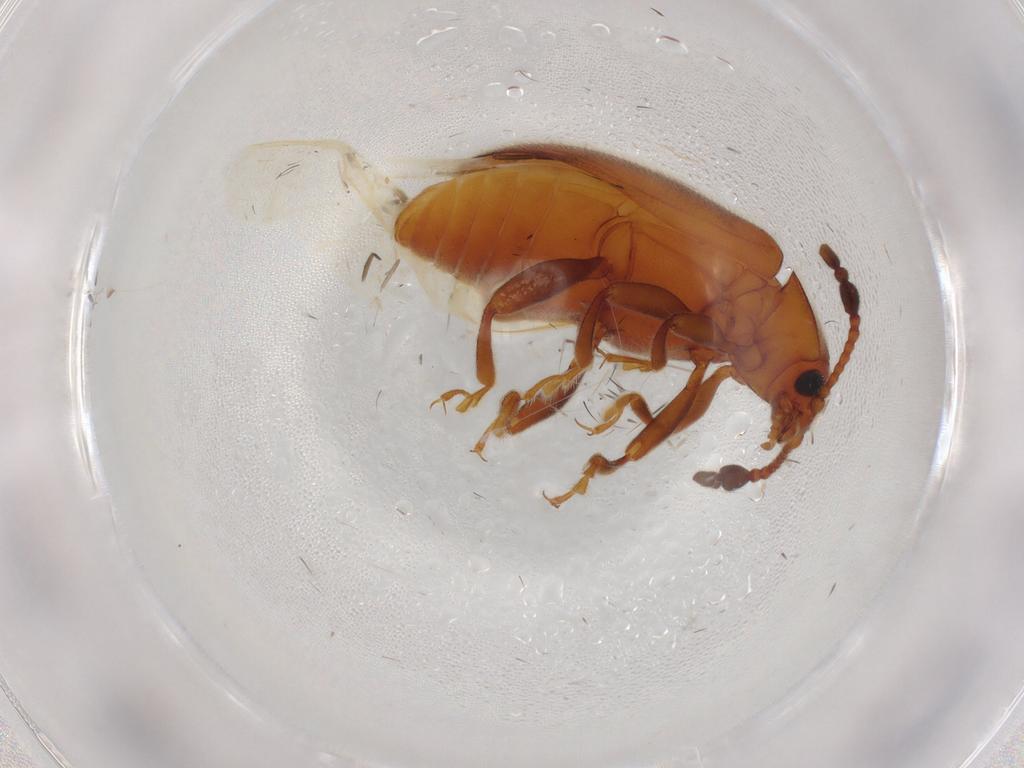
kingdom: Animalia
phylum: Arthropoda
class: Insecta
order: Coleoptera
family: Endomychidae
